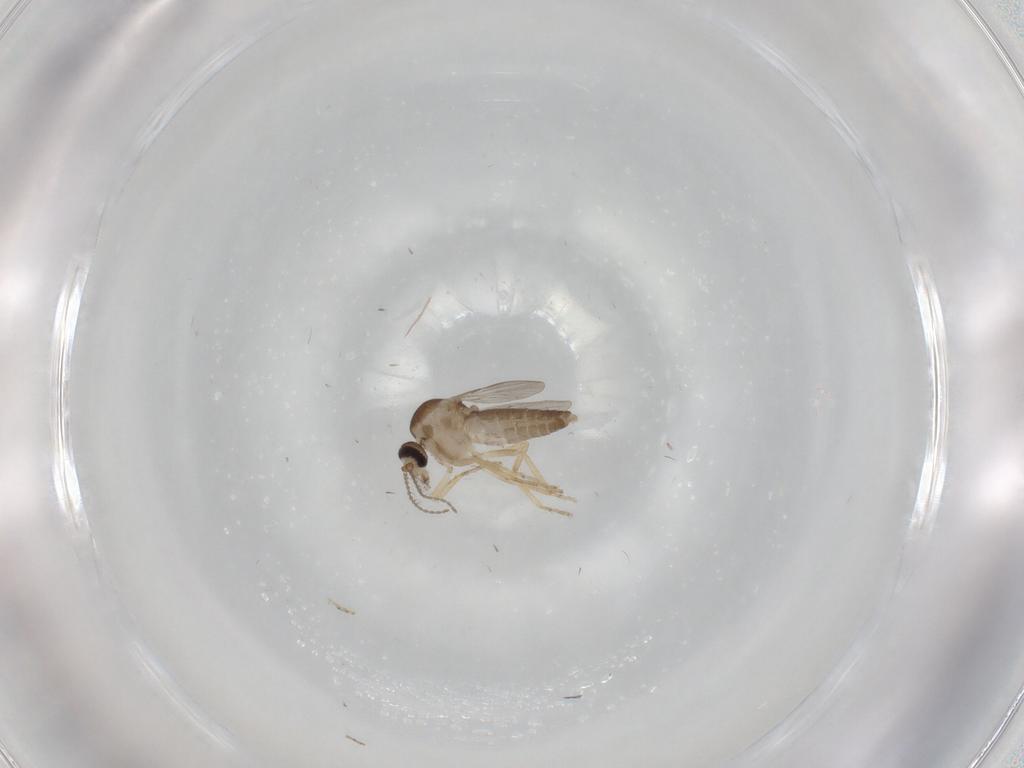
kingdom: Animalia
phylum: Arthropoda
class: Insecta
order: Diptera
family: Ceratopogonidae
